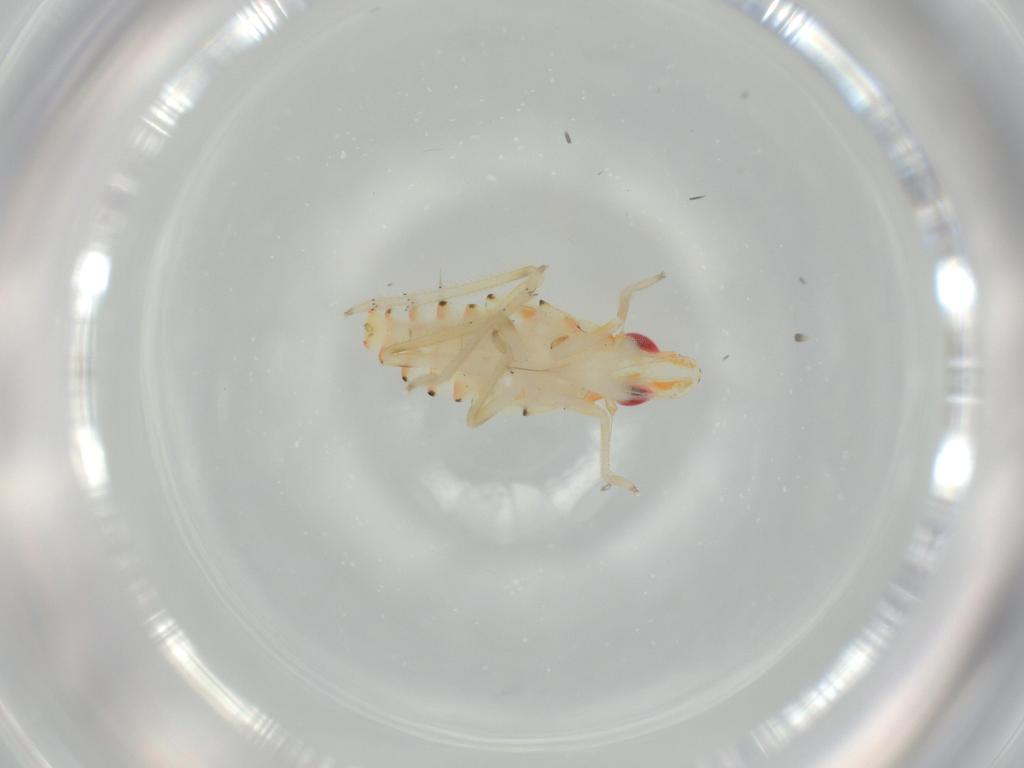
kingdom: Animalia
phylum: Arthropoda
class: Insecta
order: Hemiptera
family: Tropiduchidae
